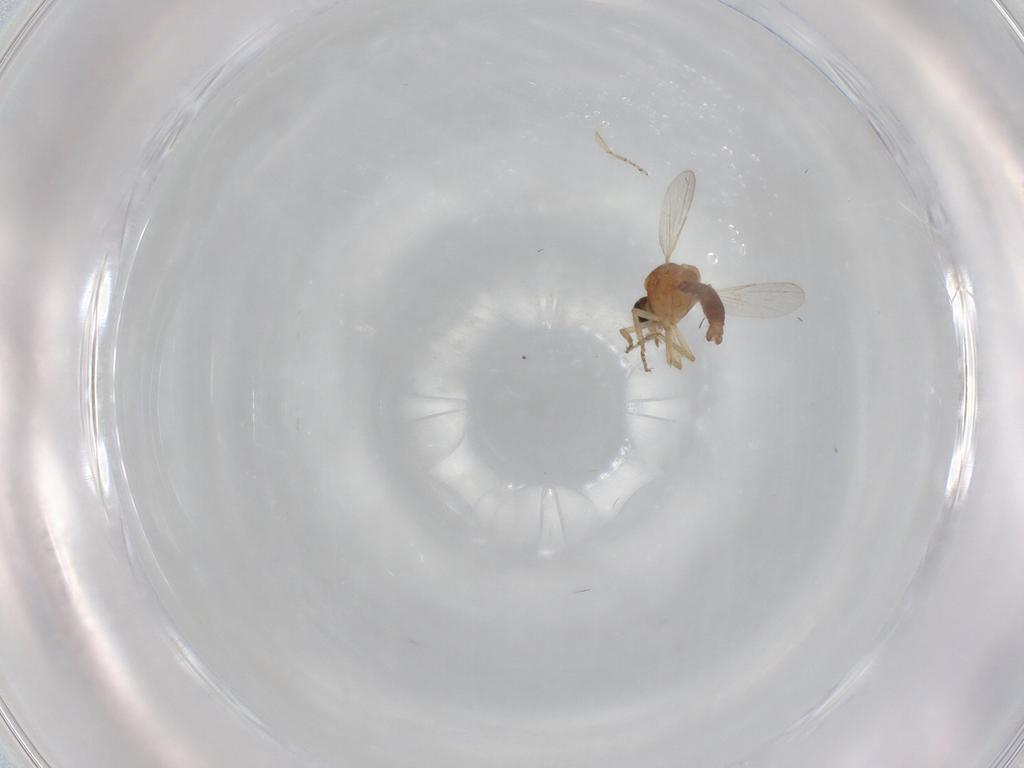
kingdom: Animalia
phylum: Arthropoda
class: Insecta
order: Diptera
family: Ceratopogonidae
